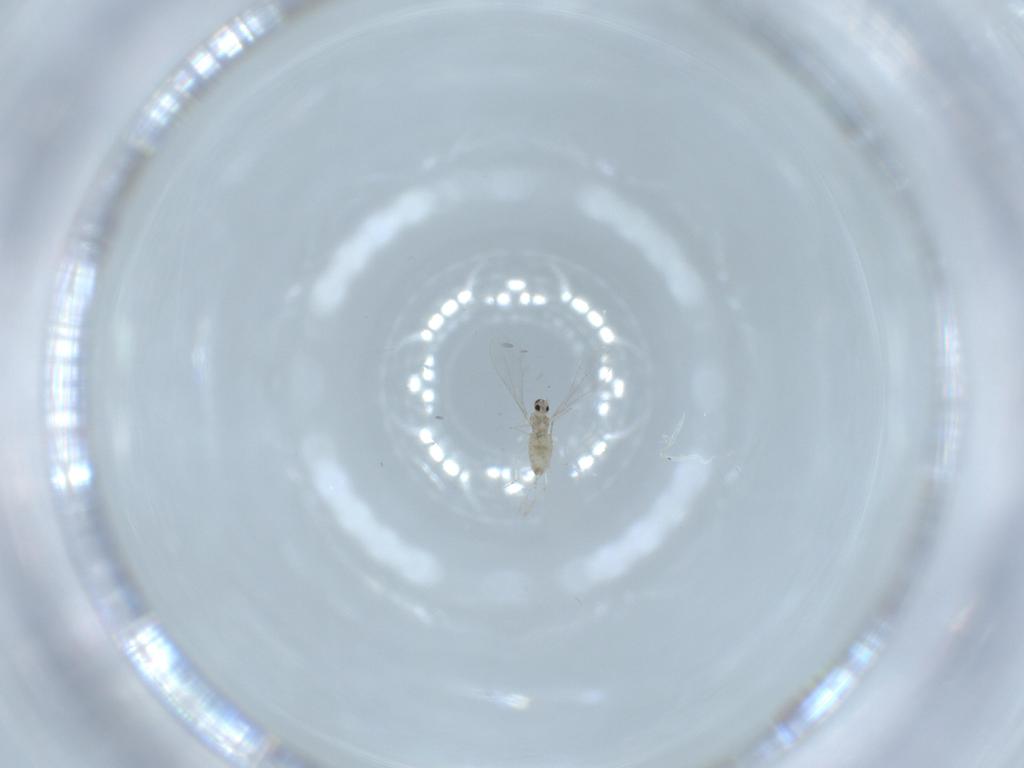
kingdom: Animalia
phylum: Arthropoda
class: Insecta
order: Diptera
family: Cecidomyiidae
